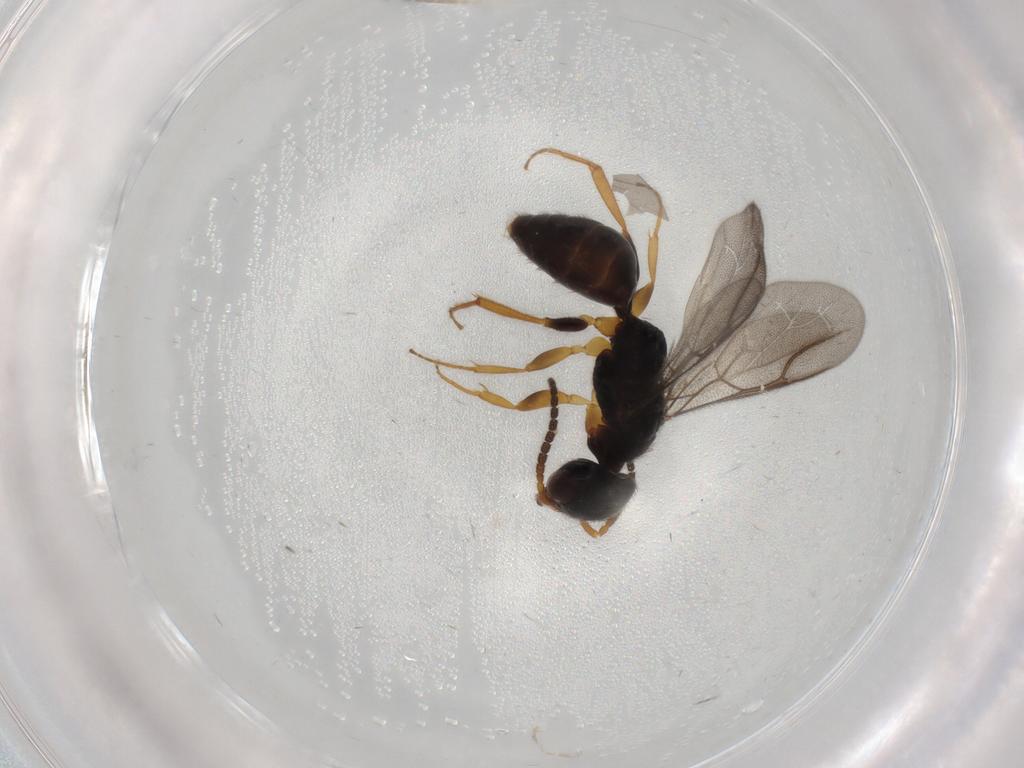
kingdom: Animalia
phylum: Arthropoda
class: Insecta
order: Hymenoptera
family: Bethylidae
